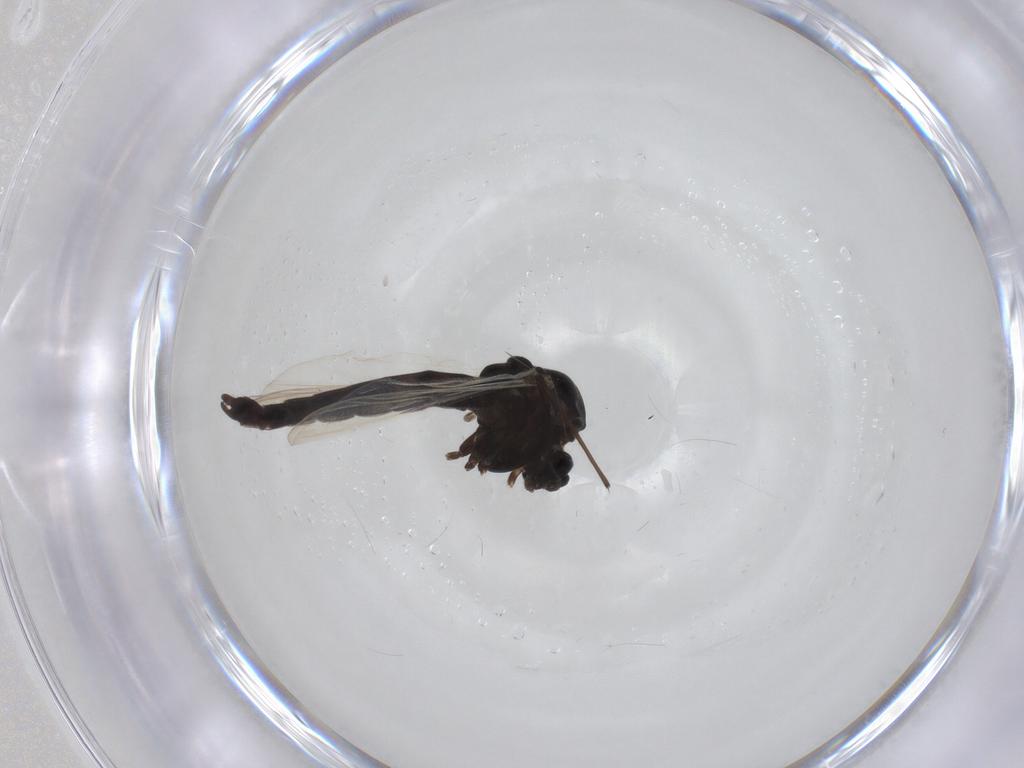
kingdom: Animalia
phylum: Arthropoda
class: Insecta
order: Diptera
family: Chironomidae
